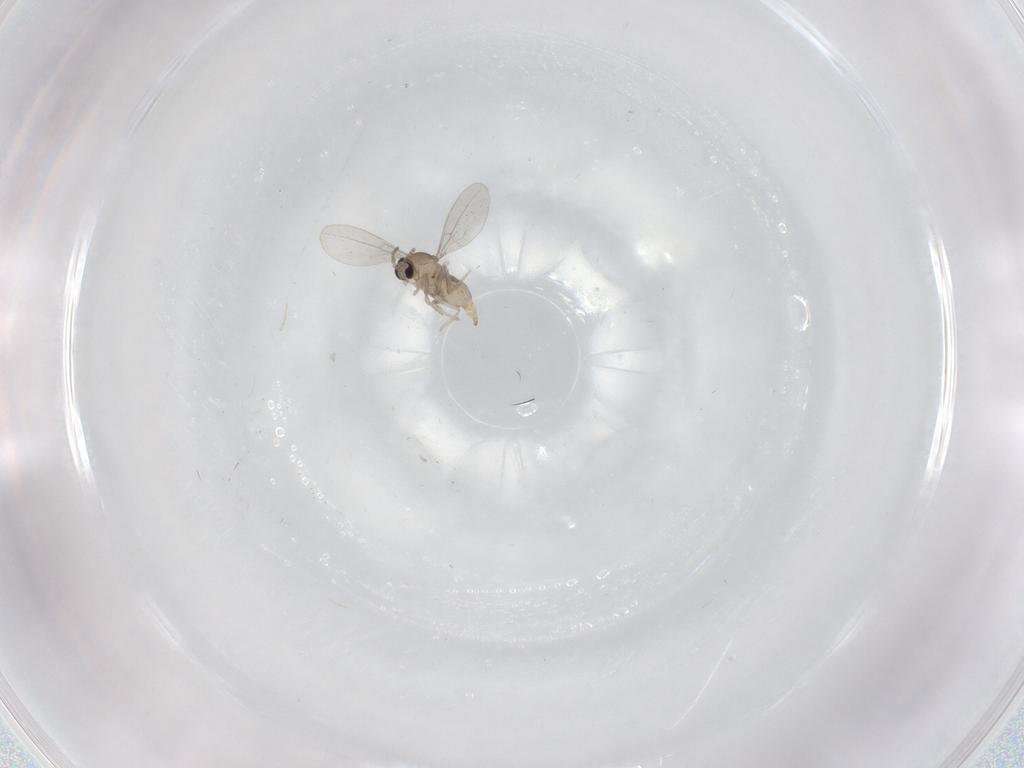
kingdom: Animalia
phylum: Arthropoda
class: Insecta
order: Diptera
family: Cecidomyiidae
